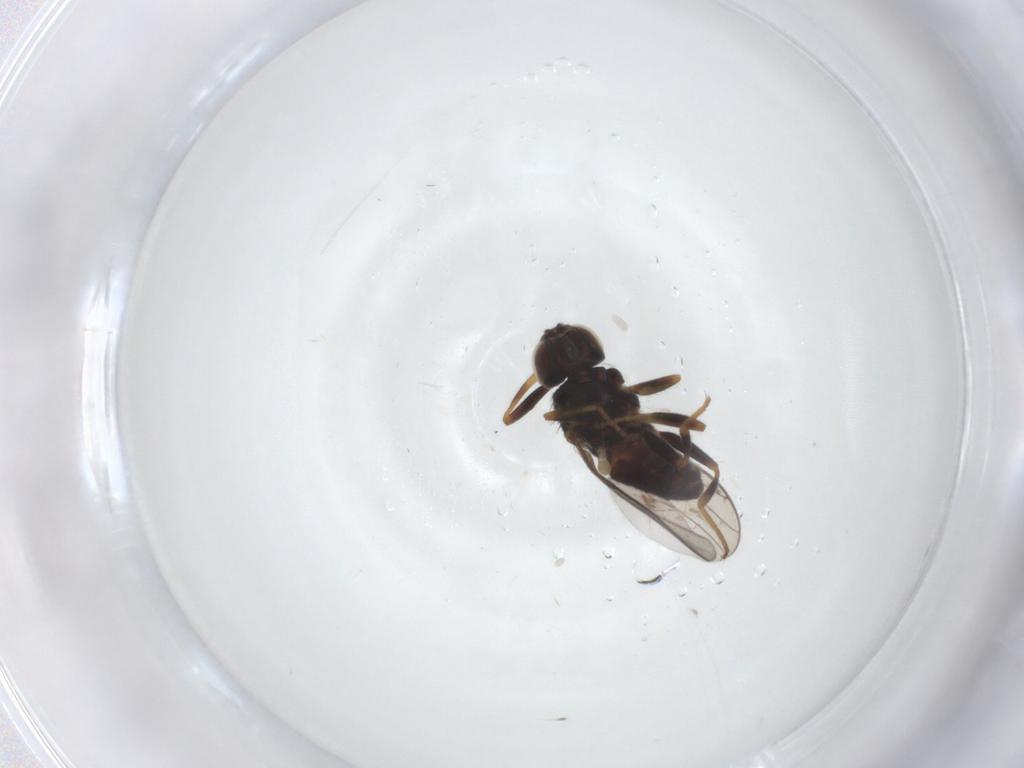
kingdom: Animalia
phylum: Arthropoda
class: Insecta
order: Diptera
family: Chloropidae
